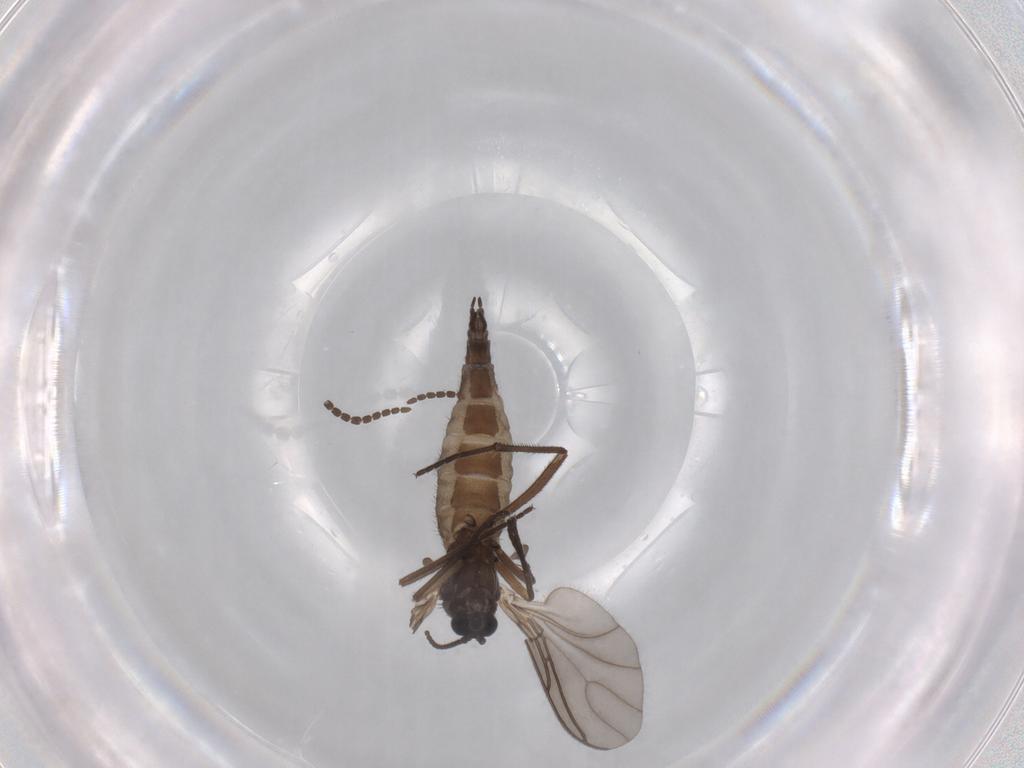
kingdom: Animalia
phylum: Arthropoda
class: Insecta
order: Diptera
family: Sciaridae
